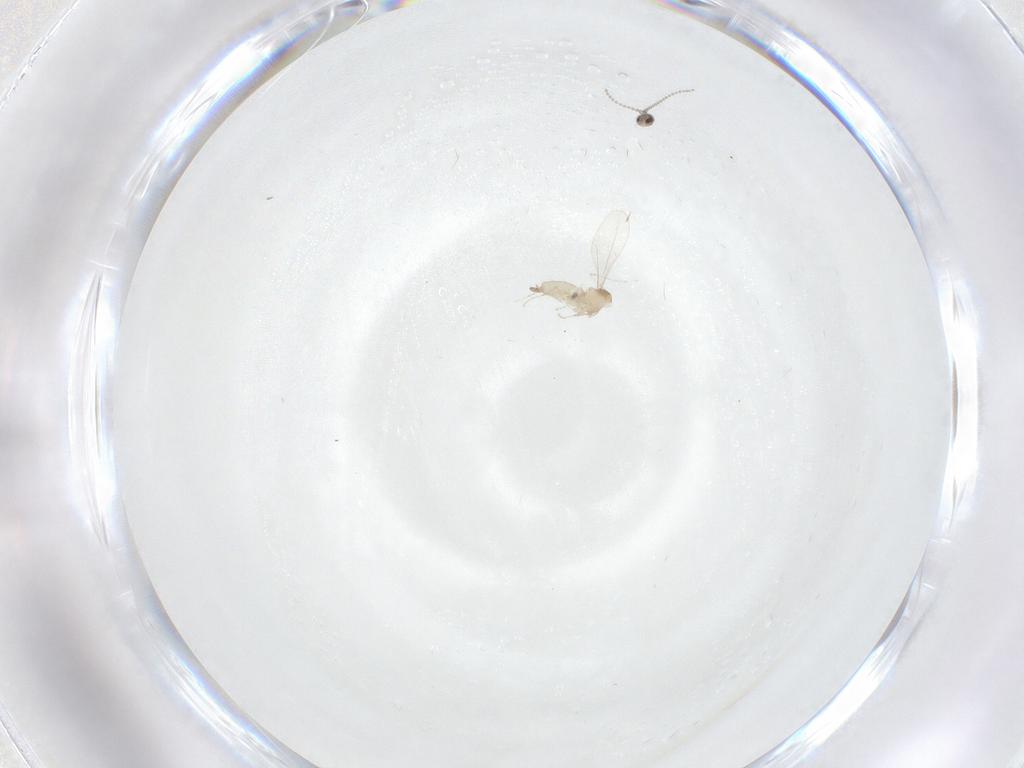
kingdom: Animalia
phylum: Arthropoda
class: Insecta
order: Diptera
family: Cecidomyiidae
